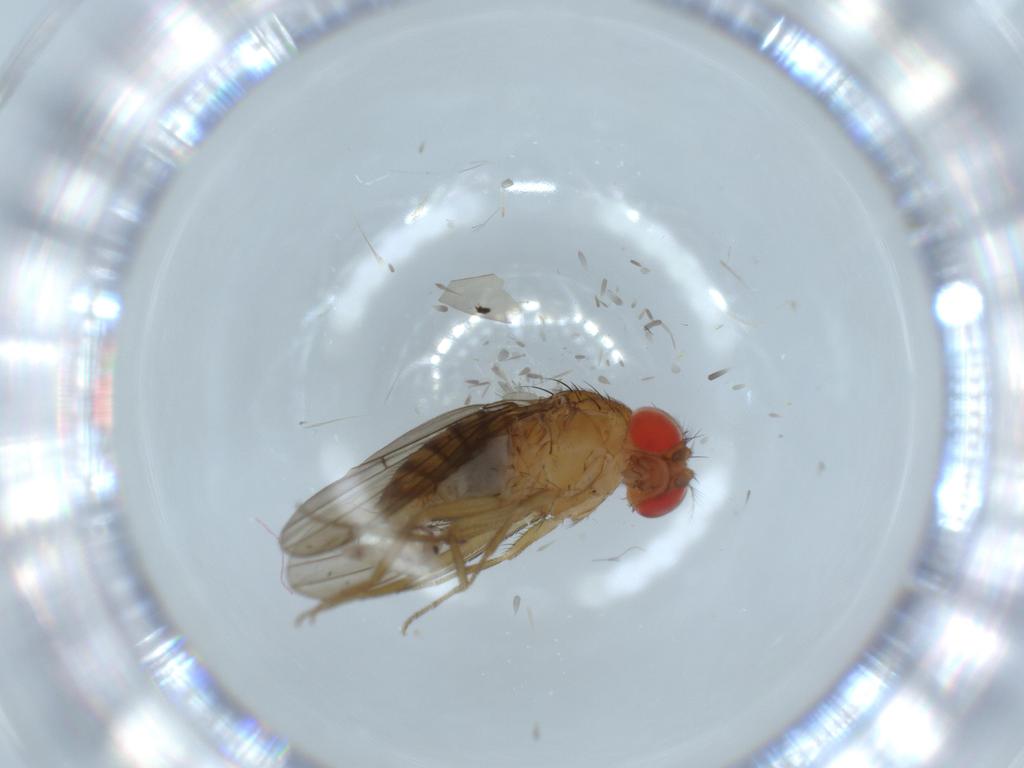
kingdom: Animalia
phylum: Arthropoda
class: Insecta
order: Diptera
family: Drosophilidae
